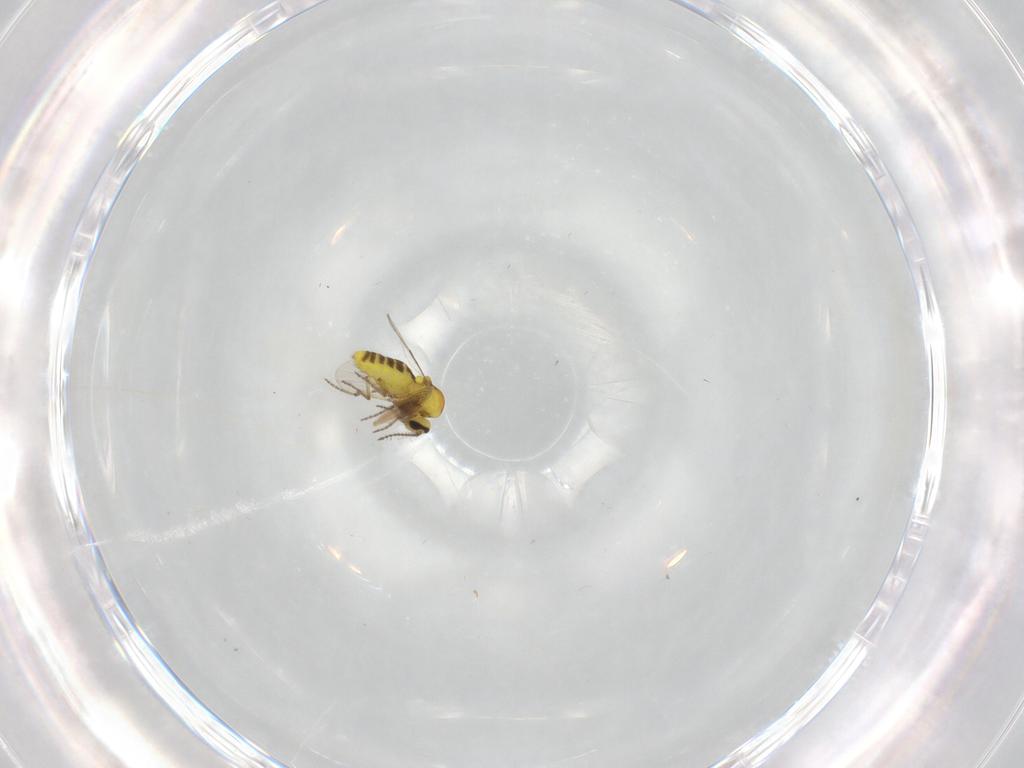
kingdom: Animalia
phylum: Arthropoda
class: Insecta
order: Diptera
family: Ceratopogonidae
